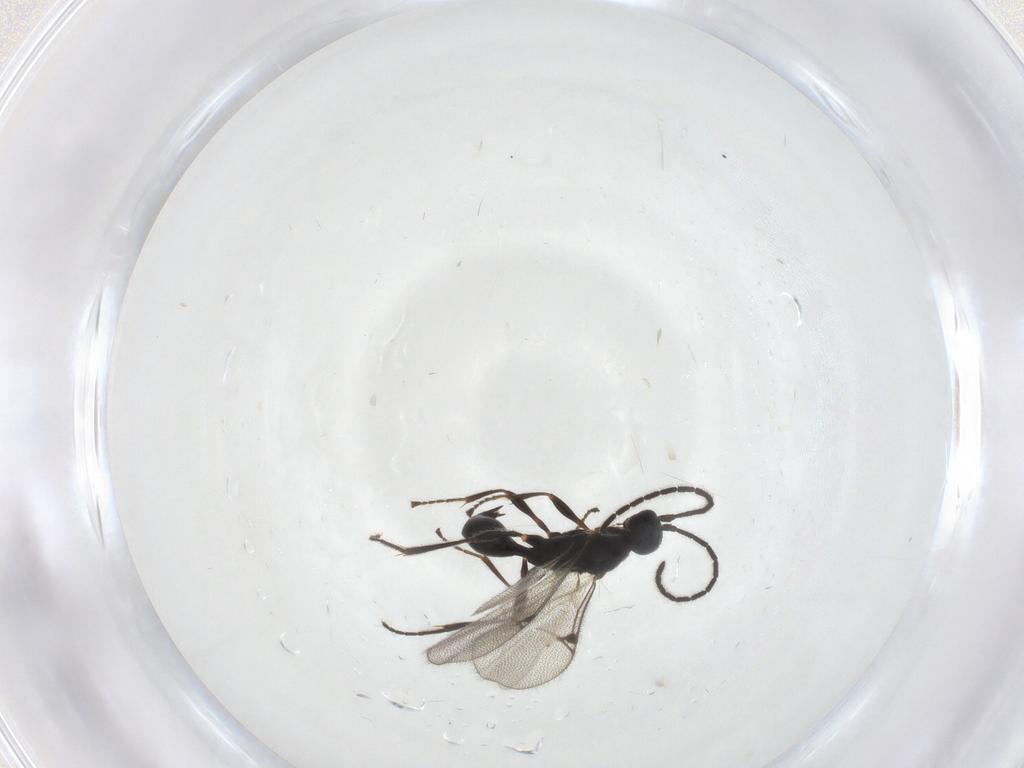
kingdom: Animalia
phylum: Arthropoda
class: Insecta
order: Hymenoptera
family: Proctotrupidae
